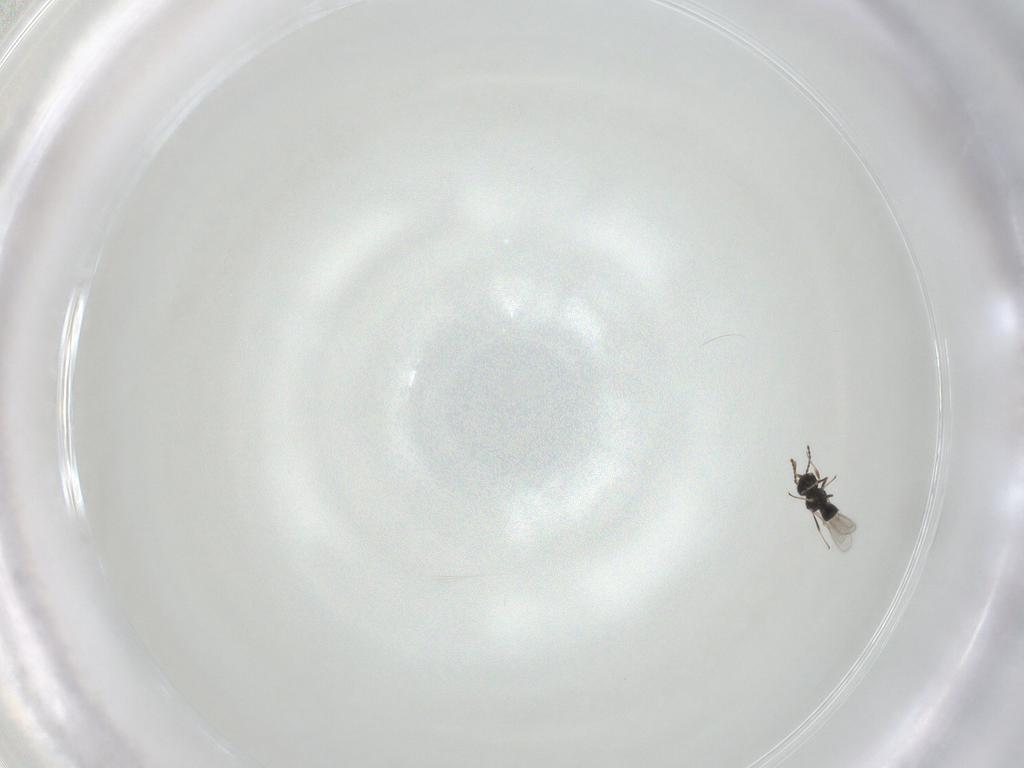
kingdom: Animalia
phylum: Arthropoda
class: Insecta
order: Hymenoptera
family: Scelionidae
